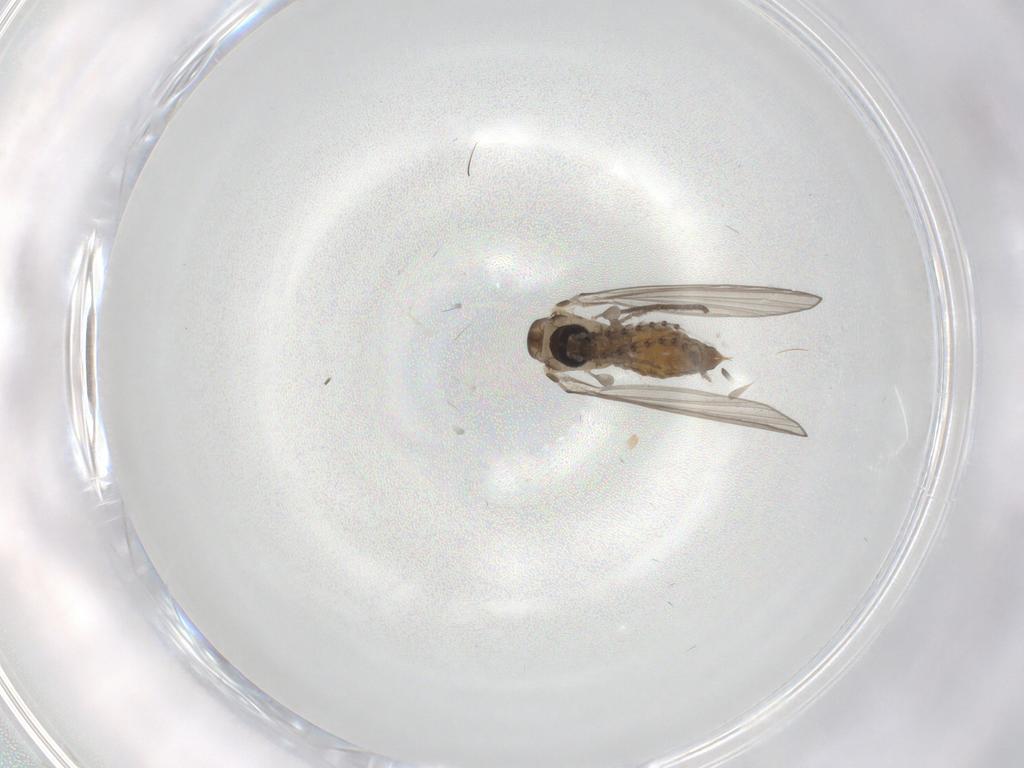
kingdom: Animalia
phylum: Arthropoda
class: Insecta
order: Diptera
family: Psychodidae
